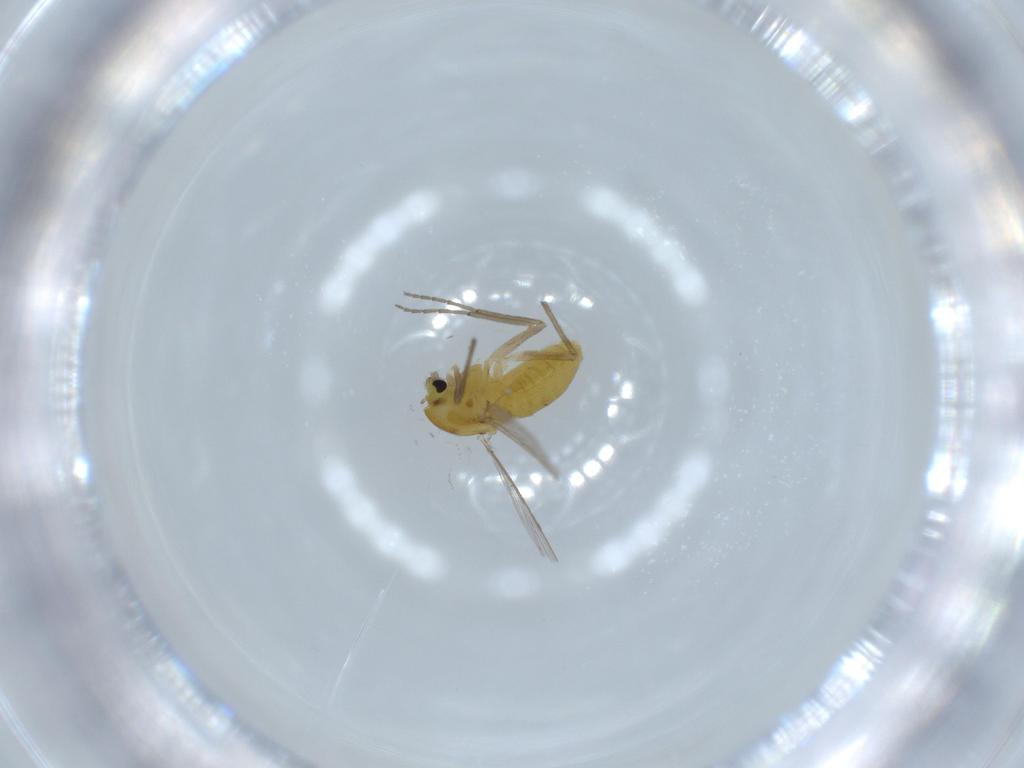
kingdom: Animalia
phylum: Arthropoda
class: Insecta
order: Diptera
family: Chironomidae
